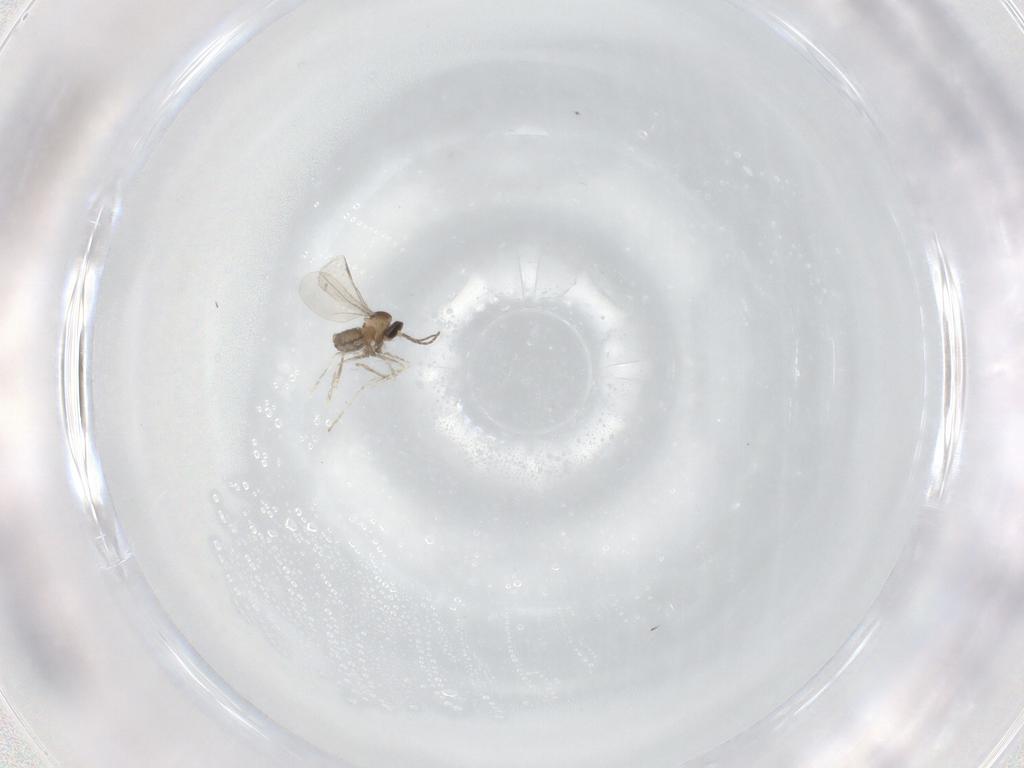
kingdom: Animalia
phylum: Arthropoda
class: Insecta
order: Diptera
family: Cecidomyiidae
